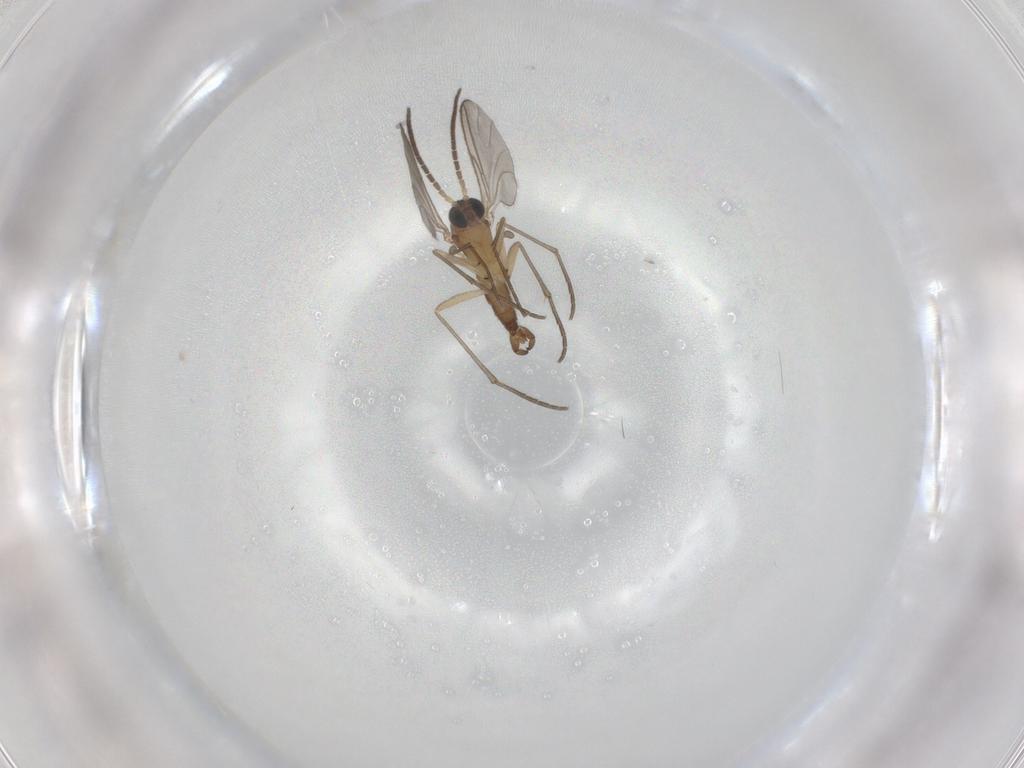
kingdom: Animalia
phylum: Arthropoda
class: Insecta
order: Diptera
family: Sciaridae
